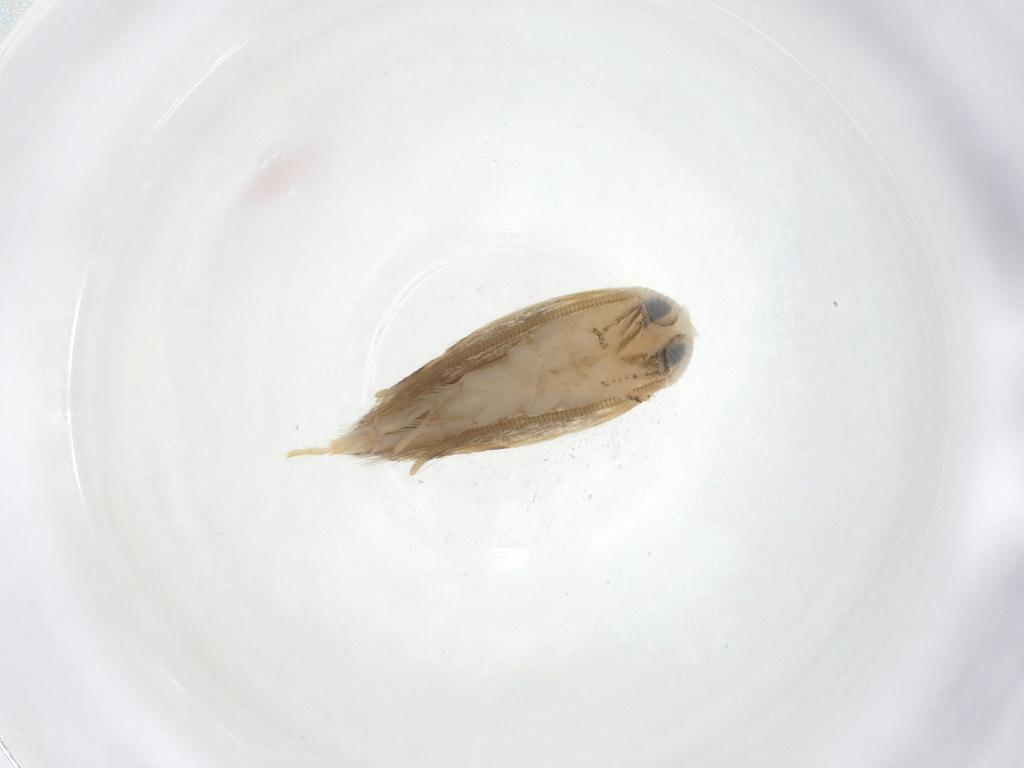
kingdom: Animalia
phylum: Arthropoda
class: Insecta
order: Lepidoptera
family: Opostegidae
